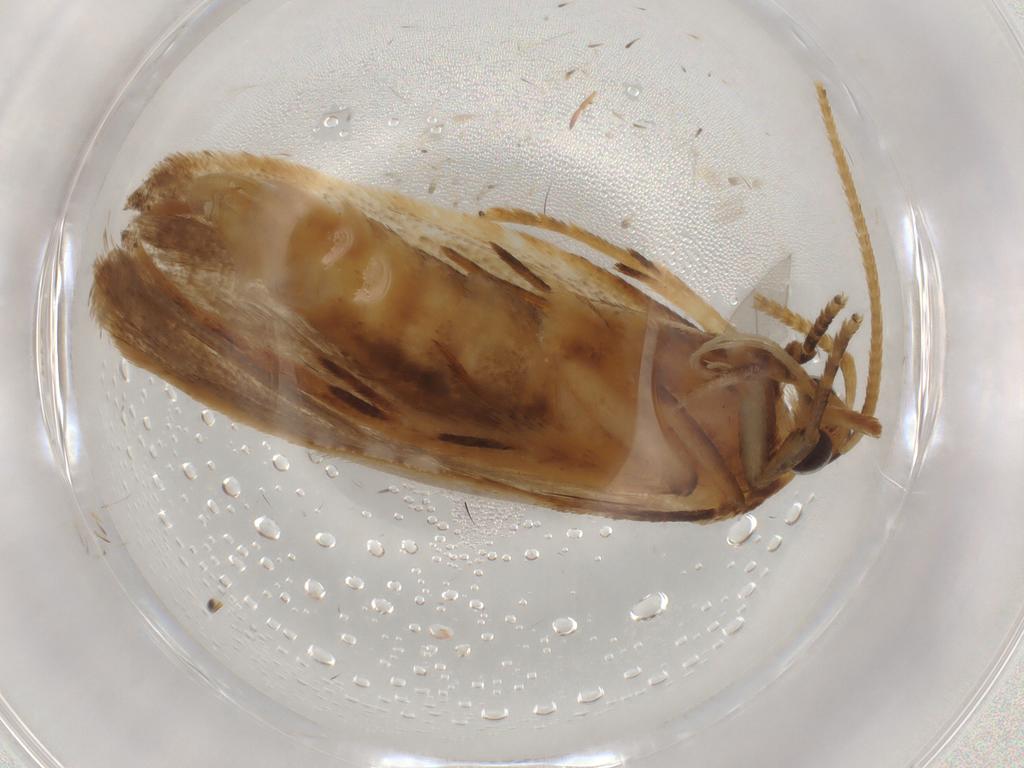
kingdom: Animalia
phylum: Arthropoda
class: Insecta
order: Lepidoptera
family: Lecithoceridae
